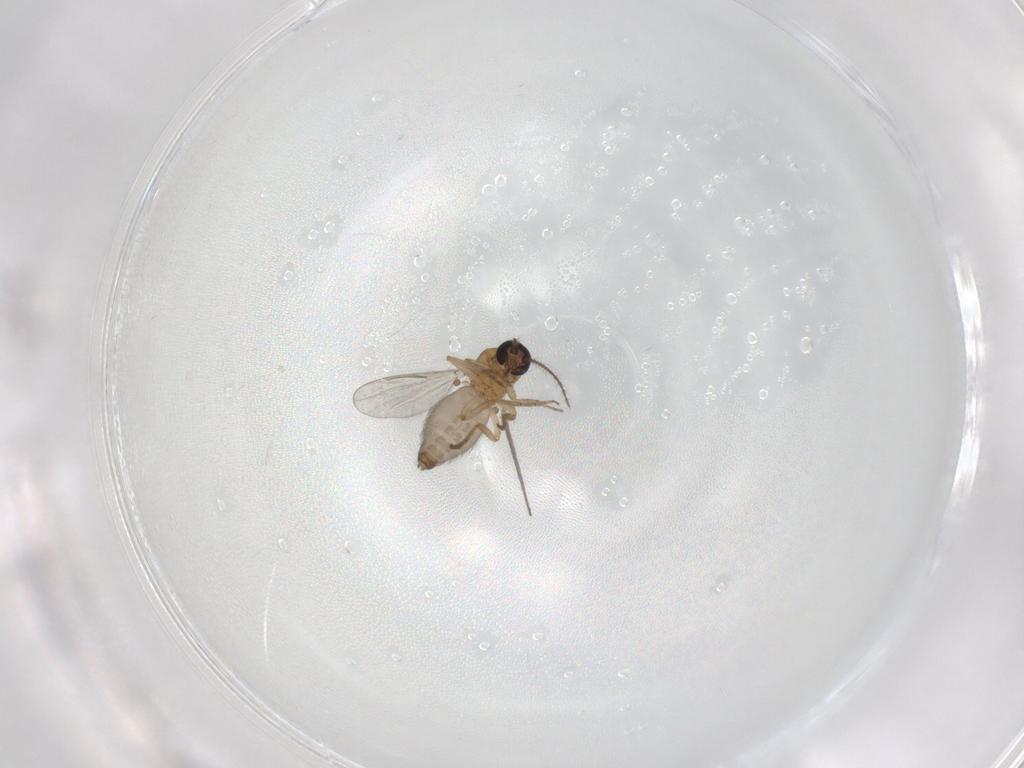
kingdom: Animalia
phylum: Arthropoda
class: Insecta
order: Diptera
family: Ceratopogonidae
